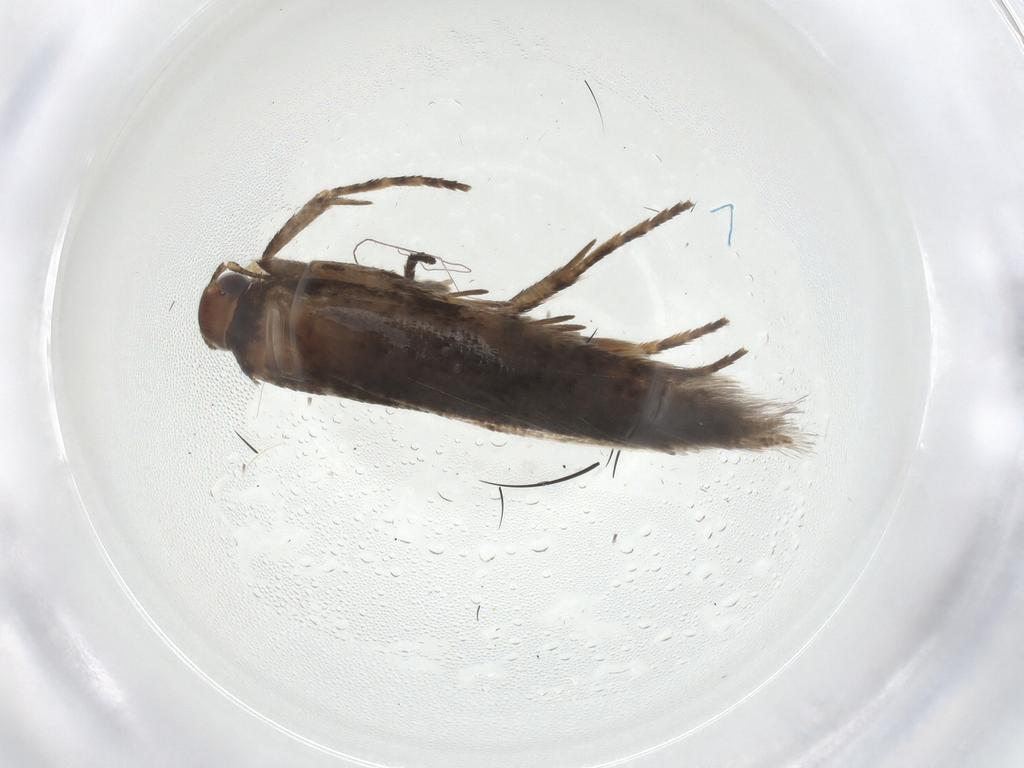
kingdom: Animalia
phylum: Arthropoda
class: Insecta
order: Lepidoptera
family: Gelechiidae
